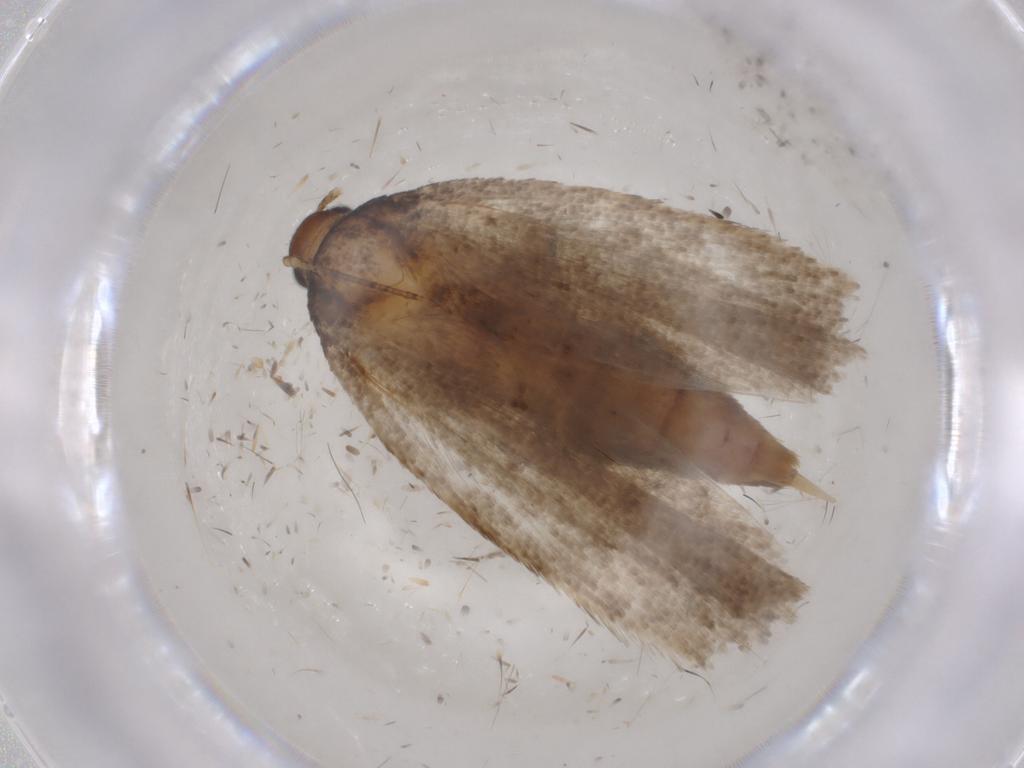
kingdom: Animalia
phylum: Arthropoda
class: Insecta
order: Lepidoptera
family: Gelechiidae
